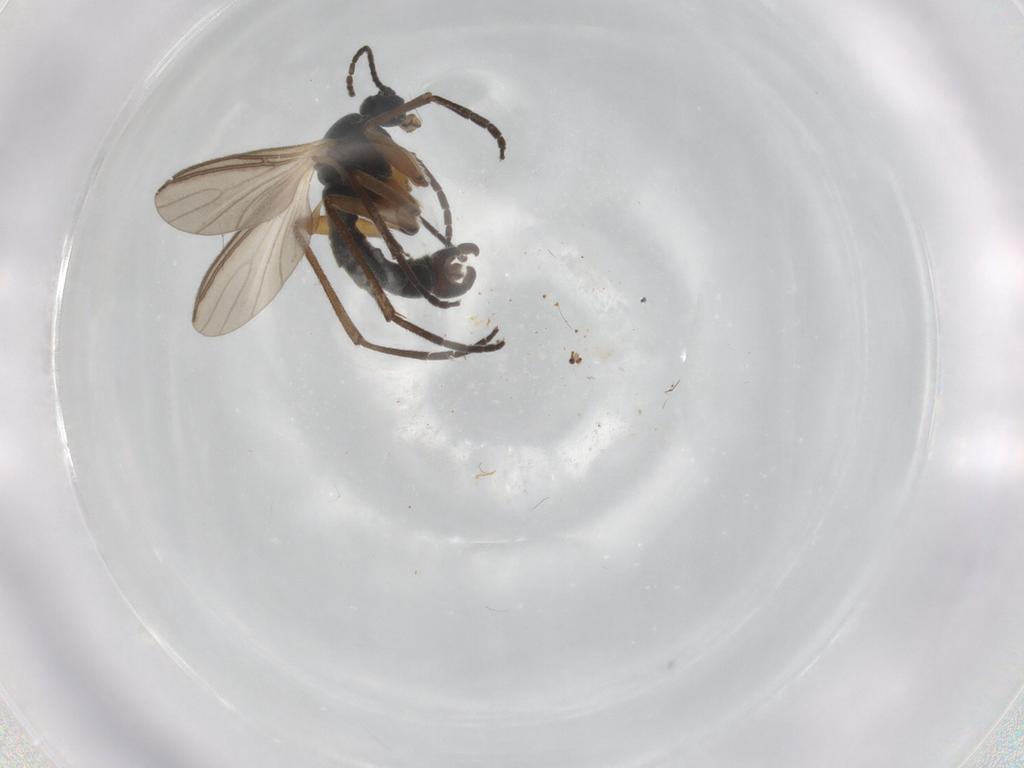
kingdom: Animalia
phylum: Arthropoda
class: Insecta
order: Diptera
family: Sciaridae
